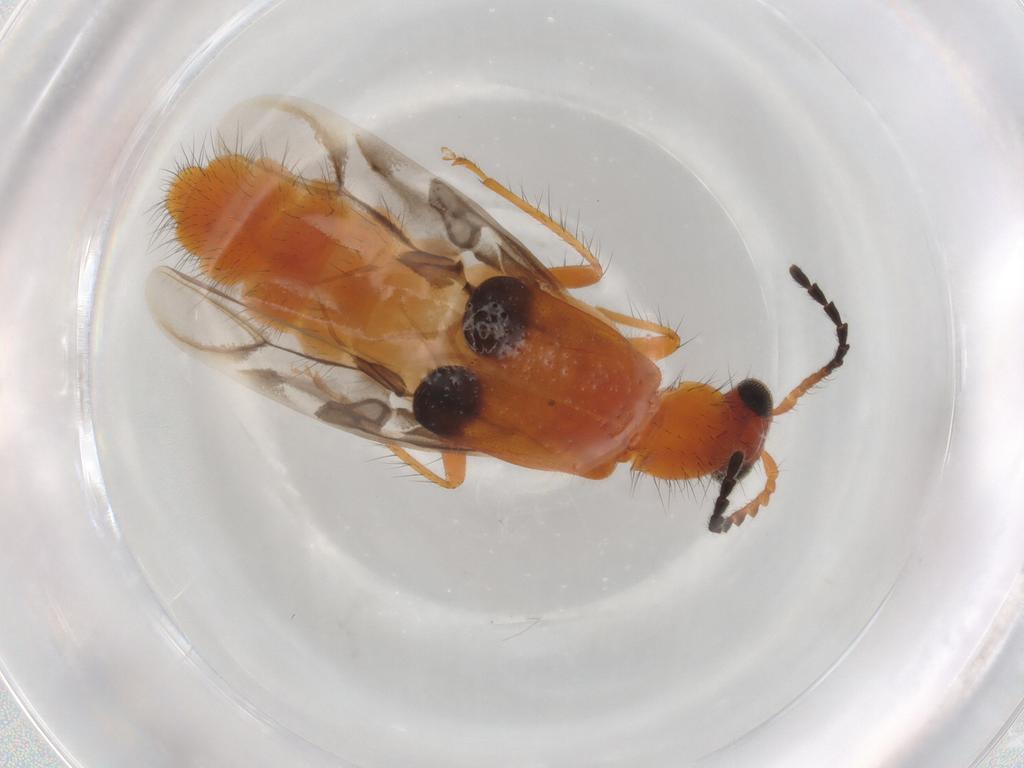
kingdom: Animalia
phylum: Arthropoda
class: Insecta
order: Coleoptera
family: Melyridae
